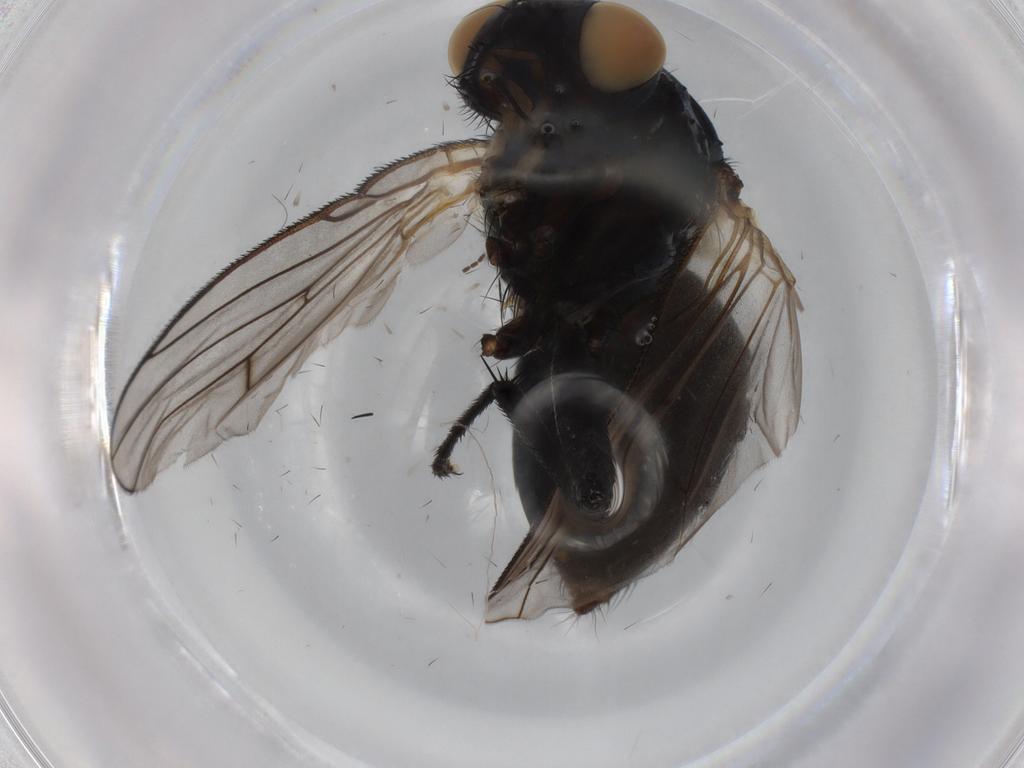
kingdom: Animalia
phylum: Arthropoda
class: Insecta
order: Diptera
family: Muscidae
